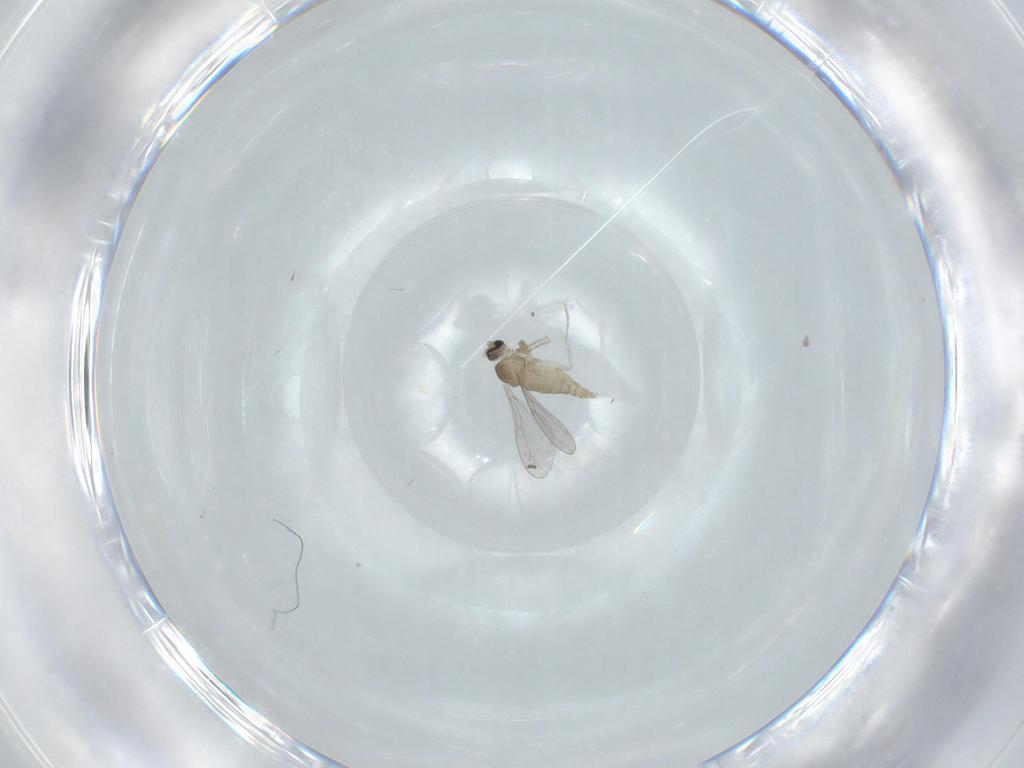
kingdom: Animalia
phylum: Arthropoda
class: Insecta
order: Diptera
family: Cecidomyiidae
